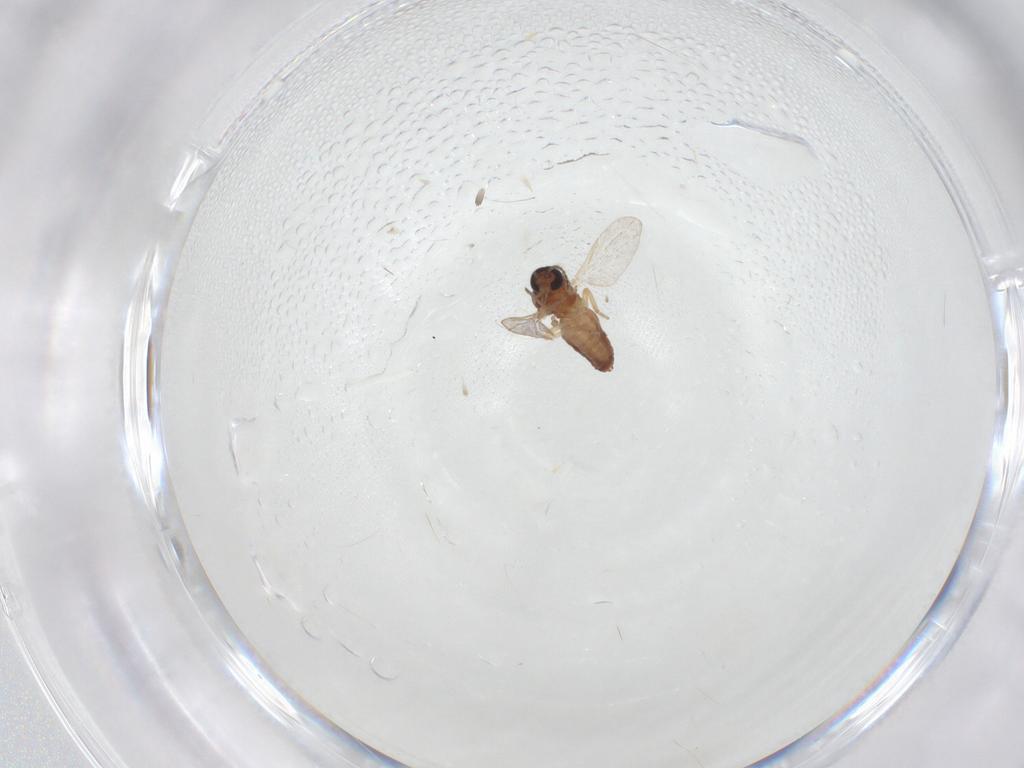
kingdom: Animalia
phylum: Arthropoda
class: Insecta
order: Diptera
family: Ceratopogonidae
